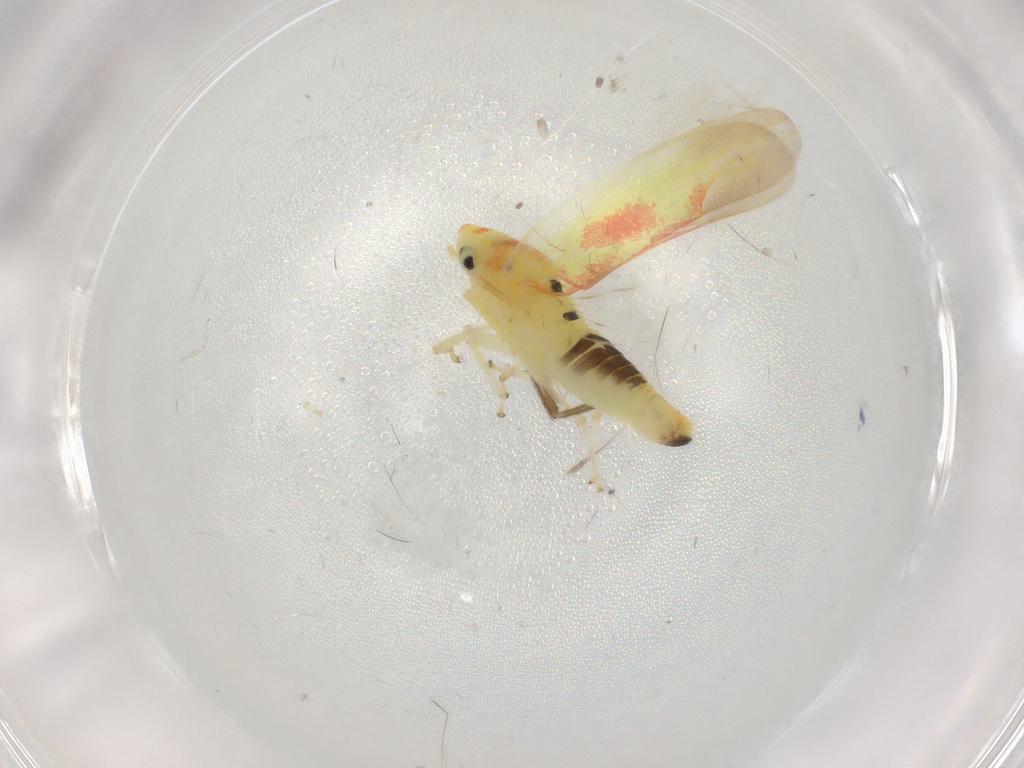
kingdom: Animalia
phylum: Arthropoda
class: Insecta
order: Hemiptera
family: Cicadellidae
